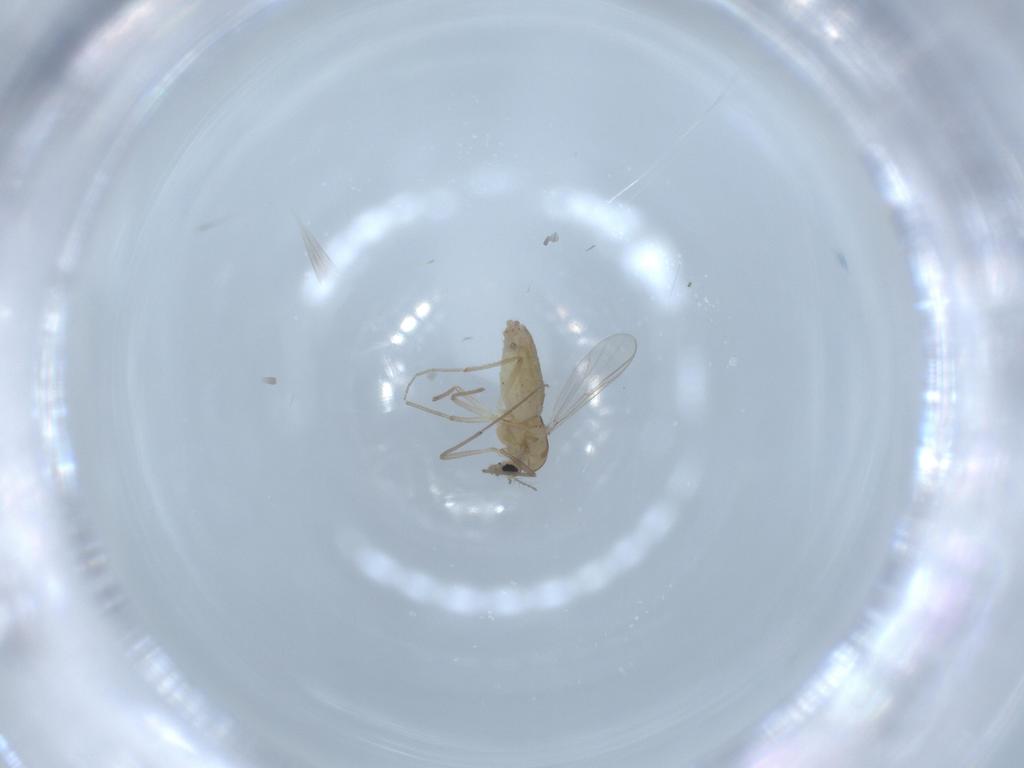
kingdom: Animalia
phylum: Arthropoda
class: Insecta
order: Diptera
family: Chironomidae
